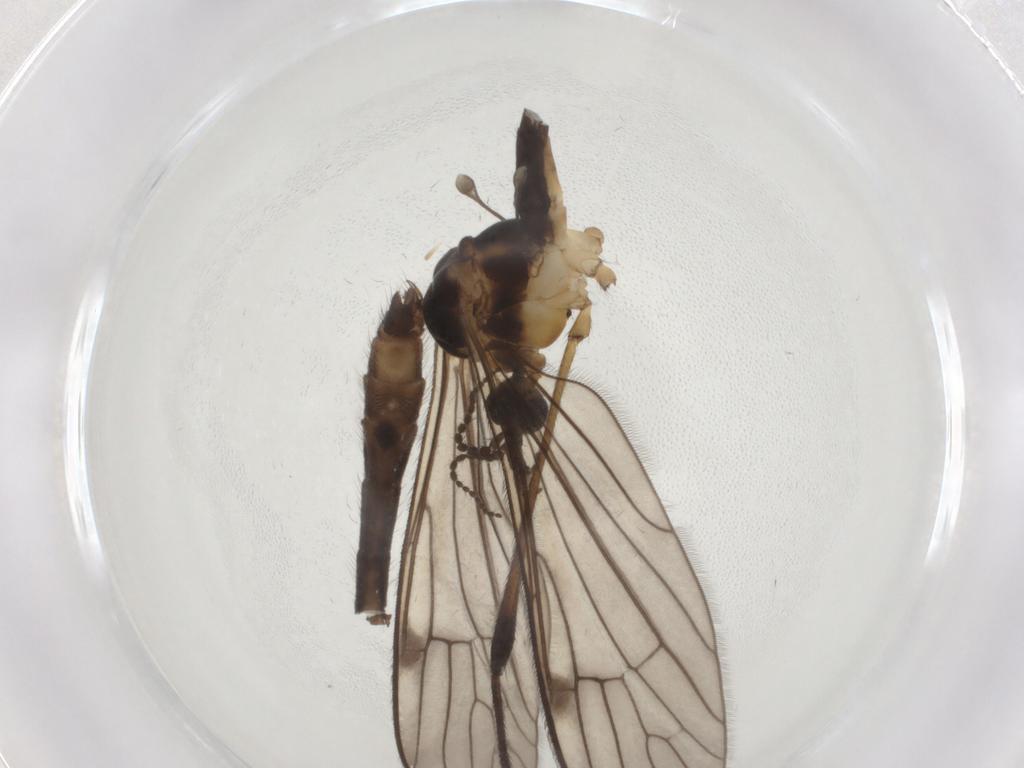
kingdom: Animalia
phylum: Arthropoda
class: Insecta
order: Diptera
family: Limoniidae
